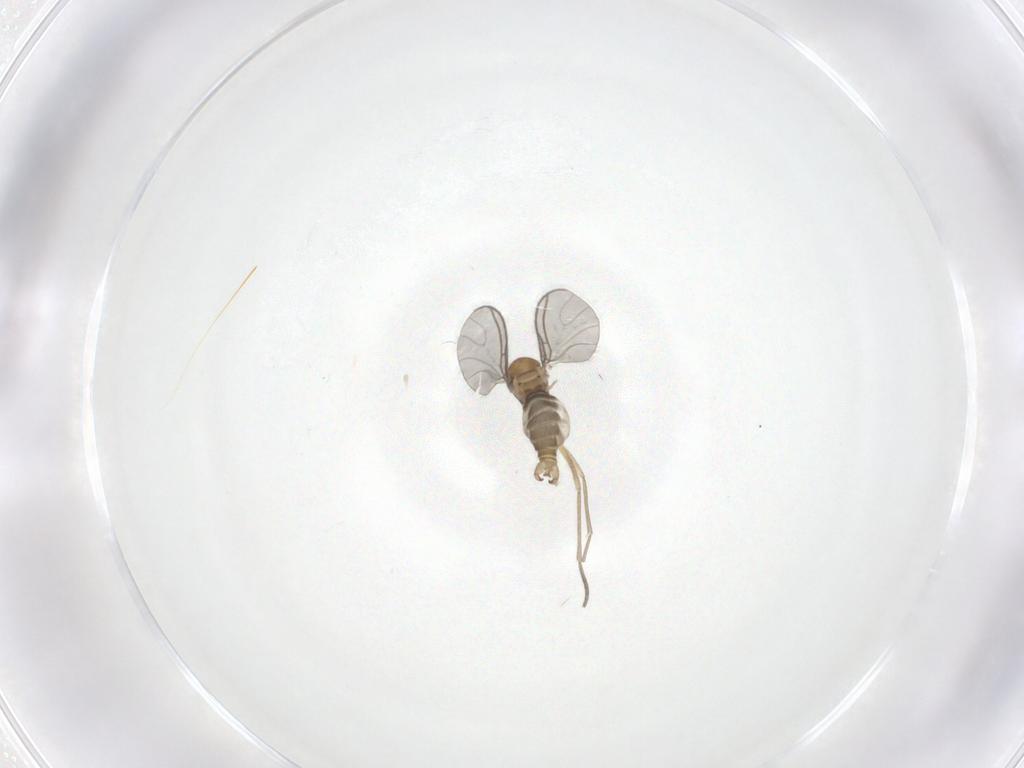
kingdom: Animalia
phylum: Arthropoda
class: Insecta
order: Diptera
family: Sciaridae
